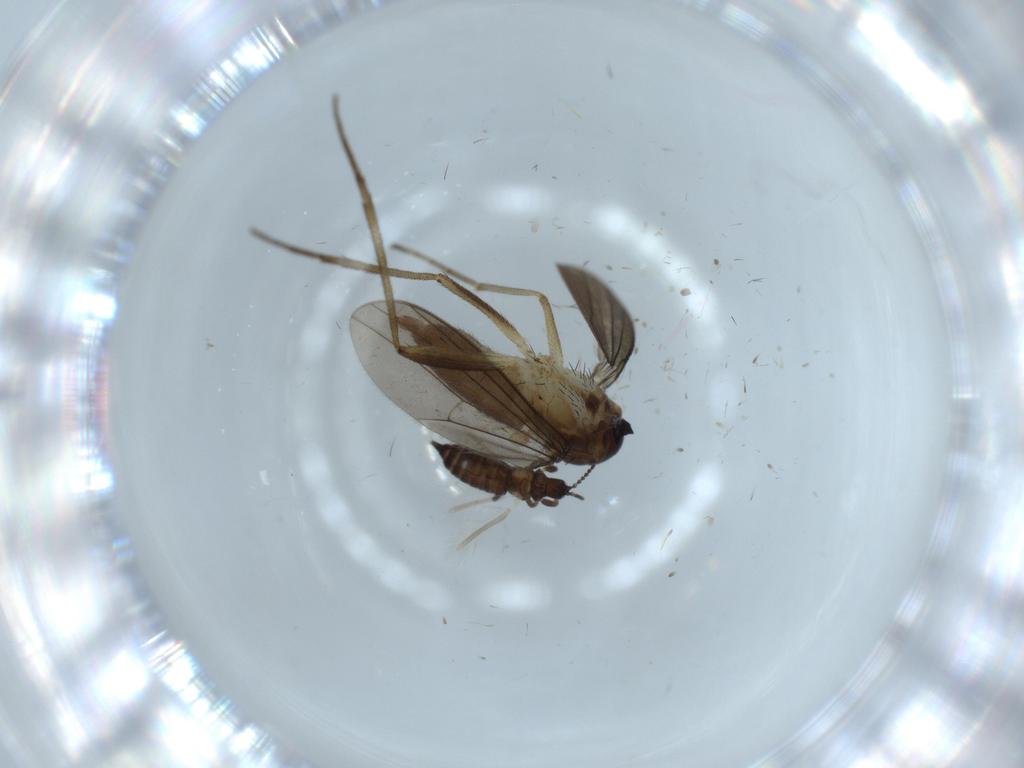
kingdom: Animalia
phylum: Arthropoda
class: Insecta
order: Diptera
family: Dolichopodidae
